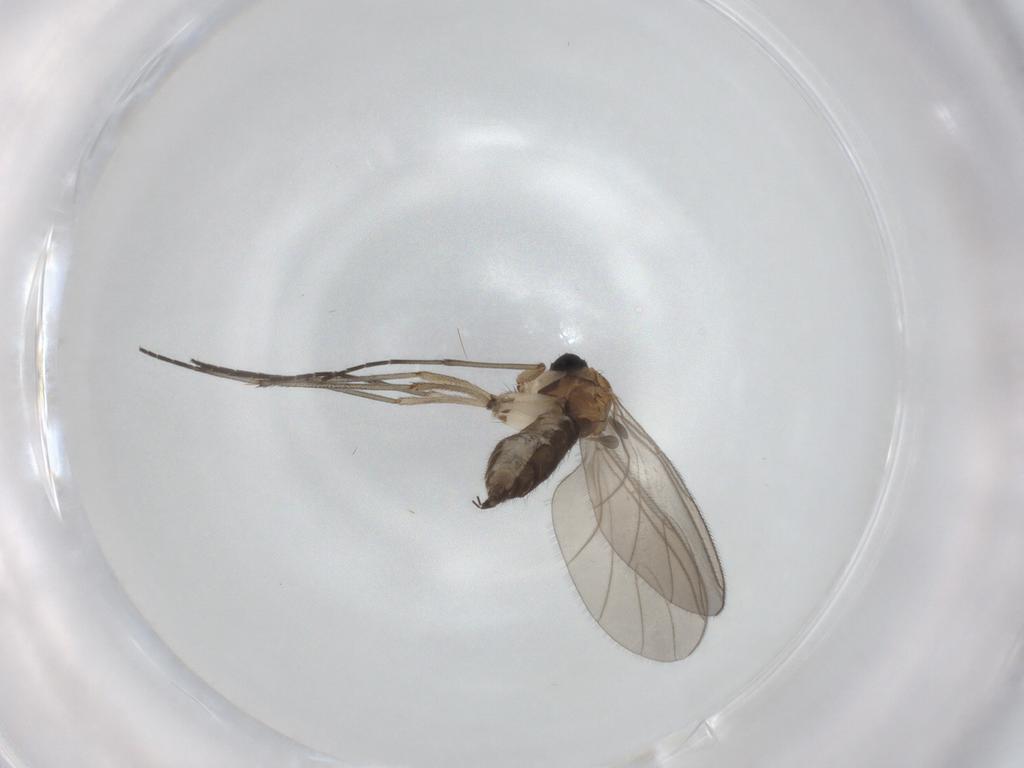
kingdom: Animalia
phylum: Arthropoda
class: Insecta
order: Diptera
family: Sciaridae
